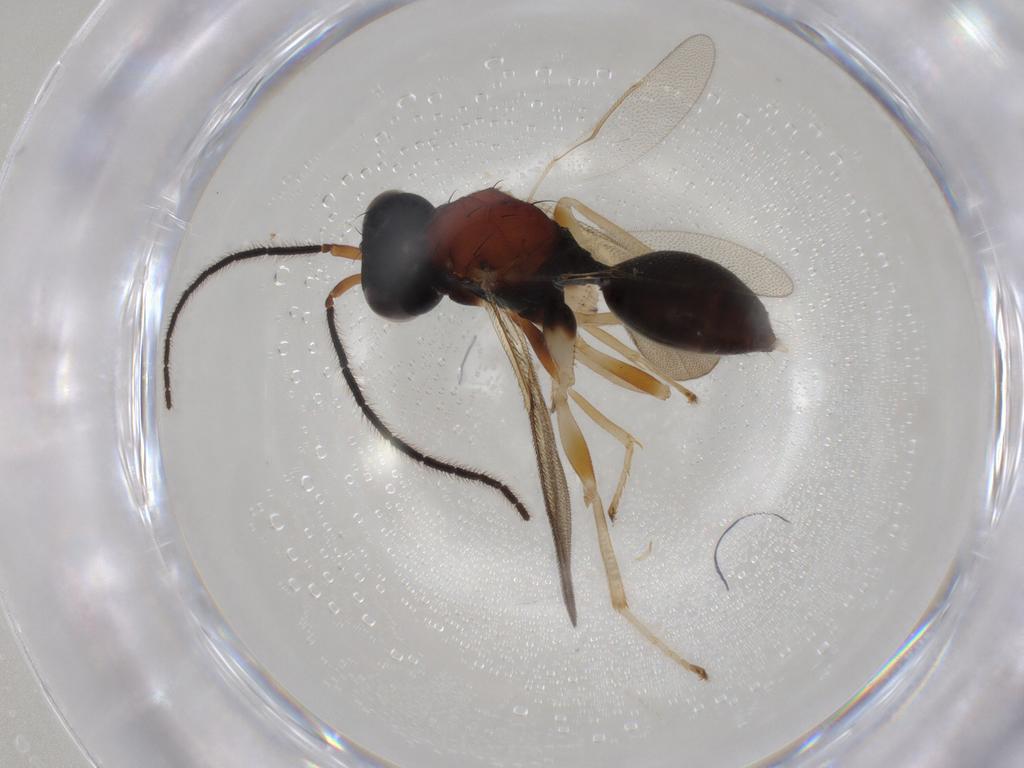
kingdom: Animalia
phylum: Arthropoda
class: Insecta
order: Hymenoptera
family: Diparidae
